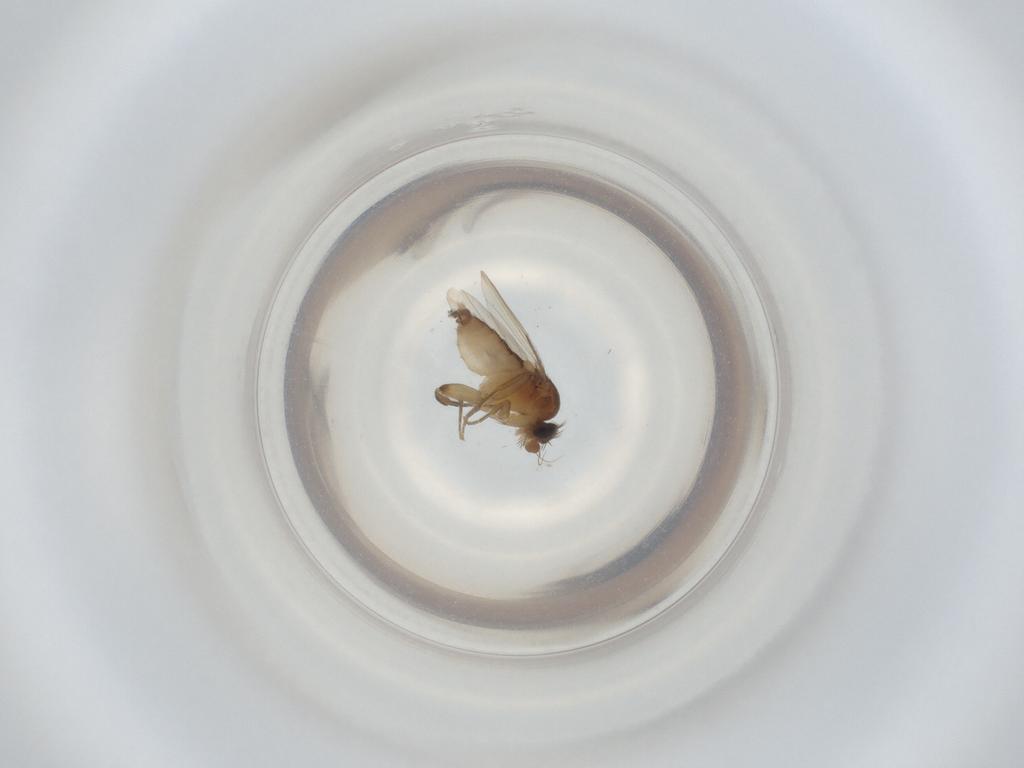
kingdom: Animalia
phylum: Arthropoda
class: Insecta
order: Diptera
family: Phoridae
